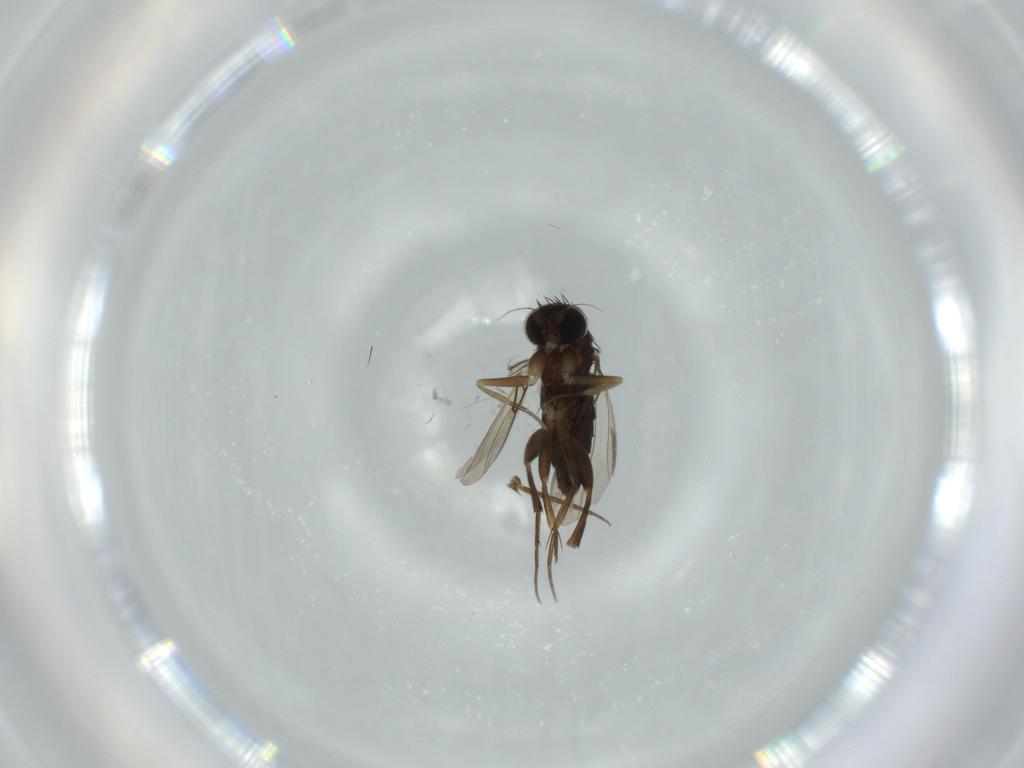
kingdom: Animalia
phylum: Arthropoda
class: Insecta
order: Diptera
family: Phoridae
